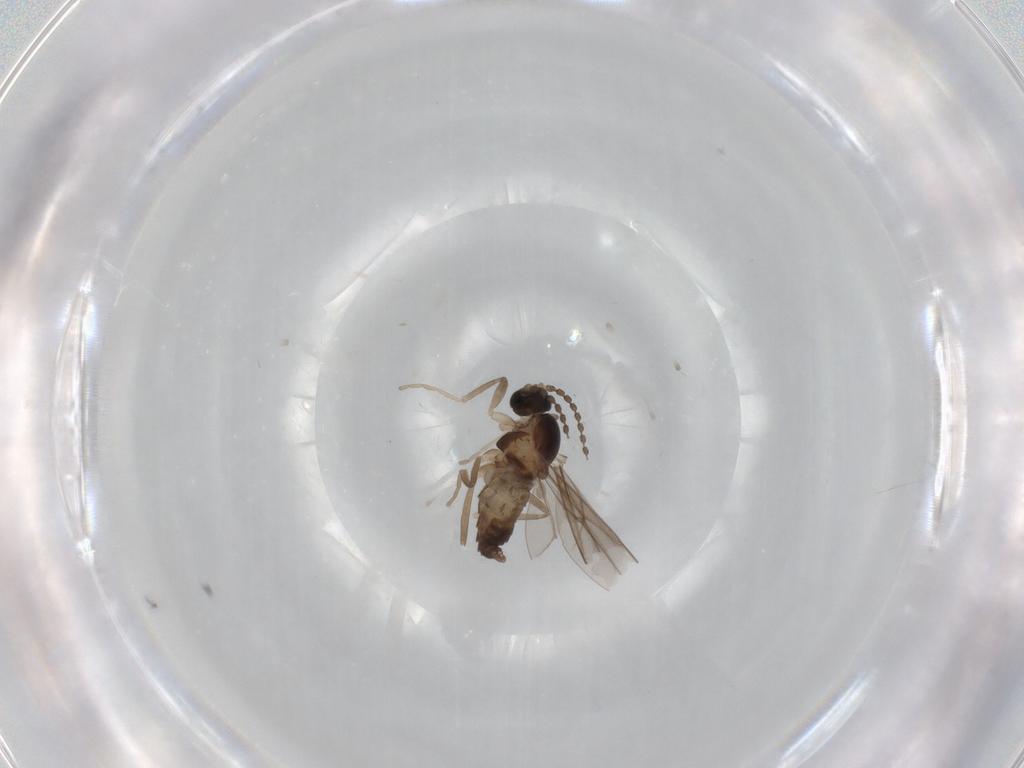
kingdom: Animalia
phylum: Arthropoda
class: Insecta
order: Diptera
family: Cecidomyiidae
